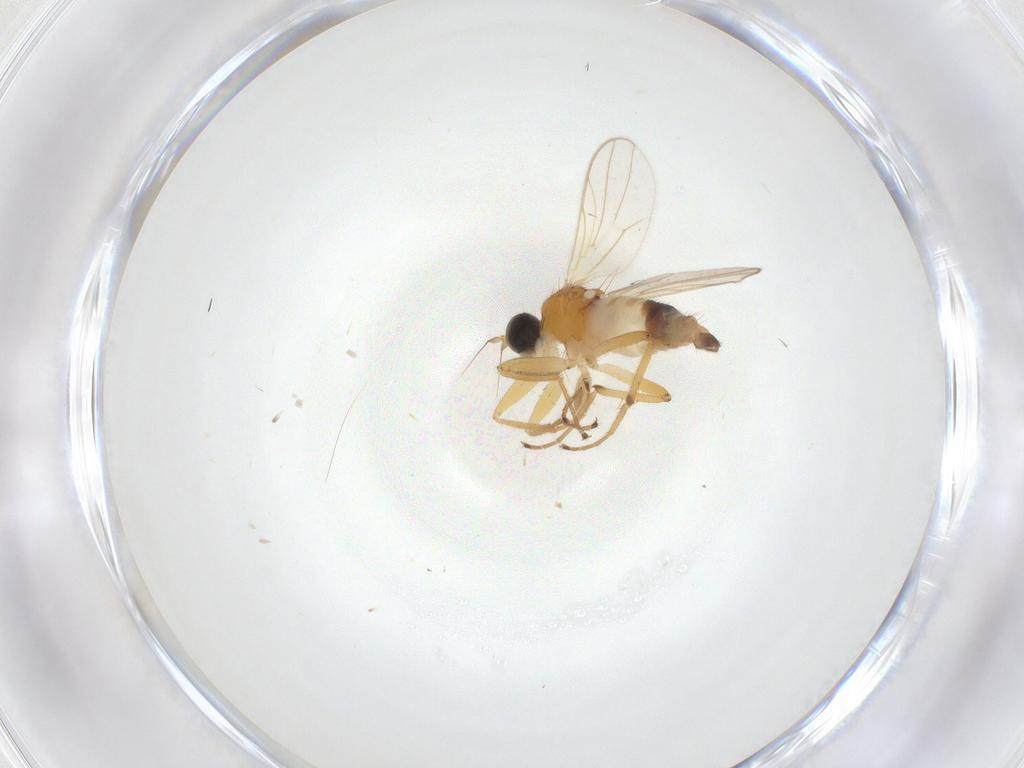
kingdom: Animalia
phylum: Arthropoda
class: Insecta
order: Diptera
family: Hybotidae
